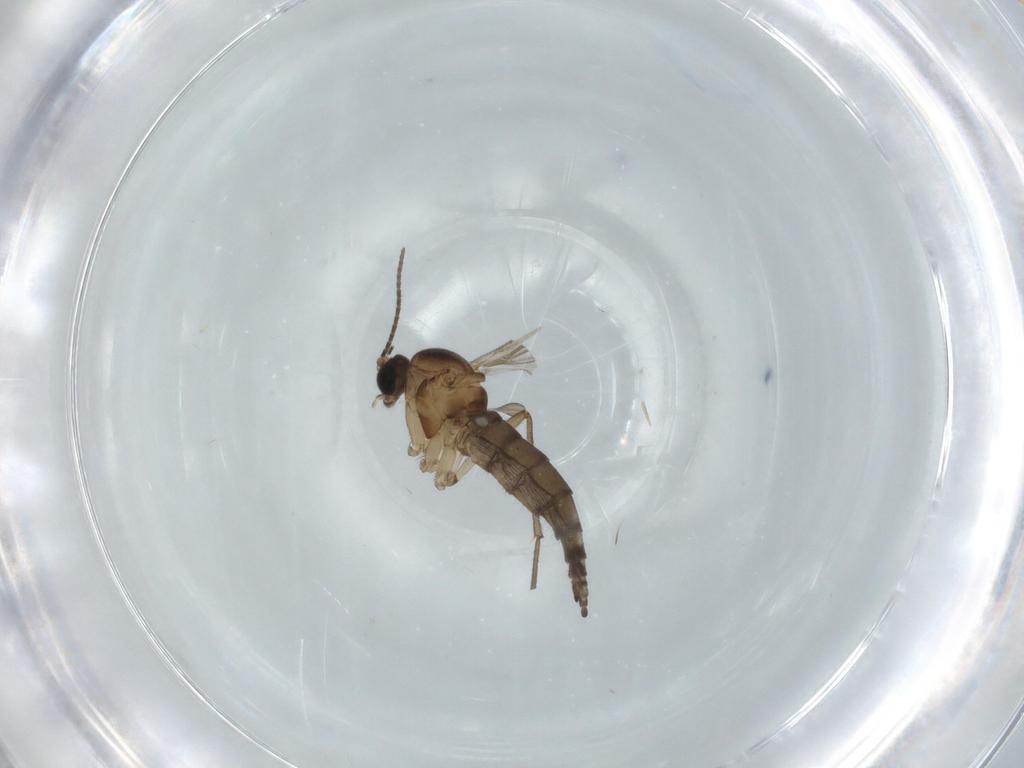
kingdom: Animalia
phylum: Arthropoda
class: Insecta
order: Diptera
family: Sciaridae
